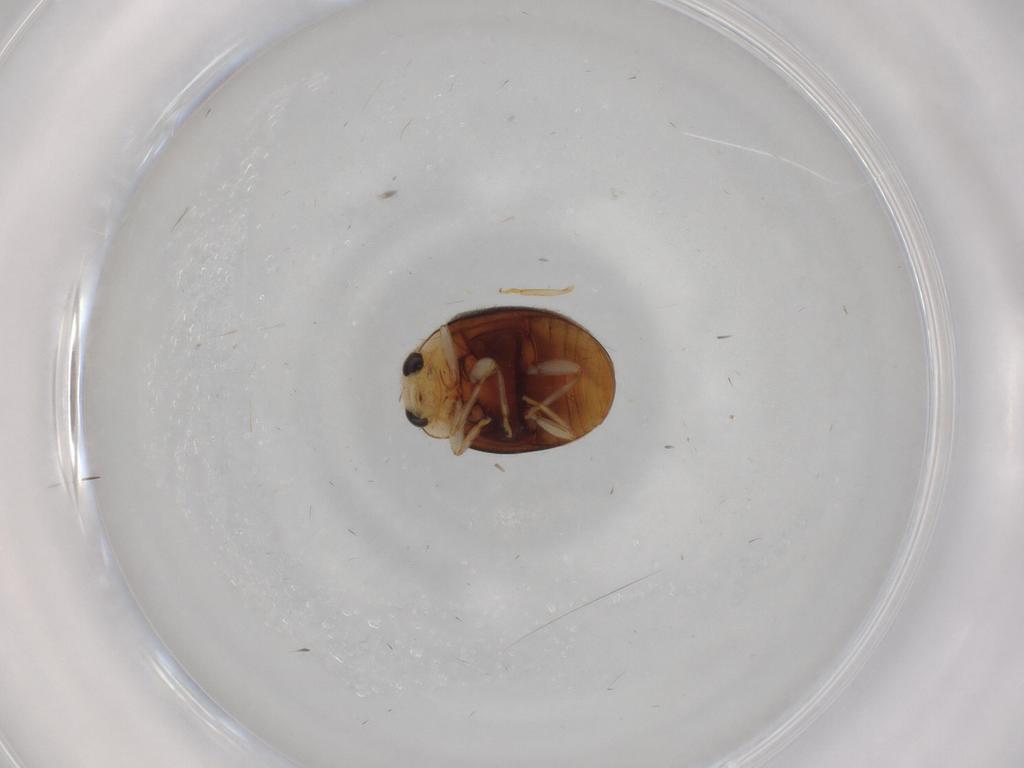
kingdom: Animalia
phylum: Arthropoda
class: Insecta
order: Coleoptera
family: Coccinellidae
